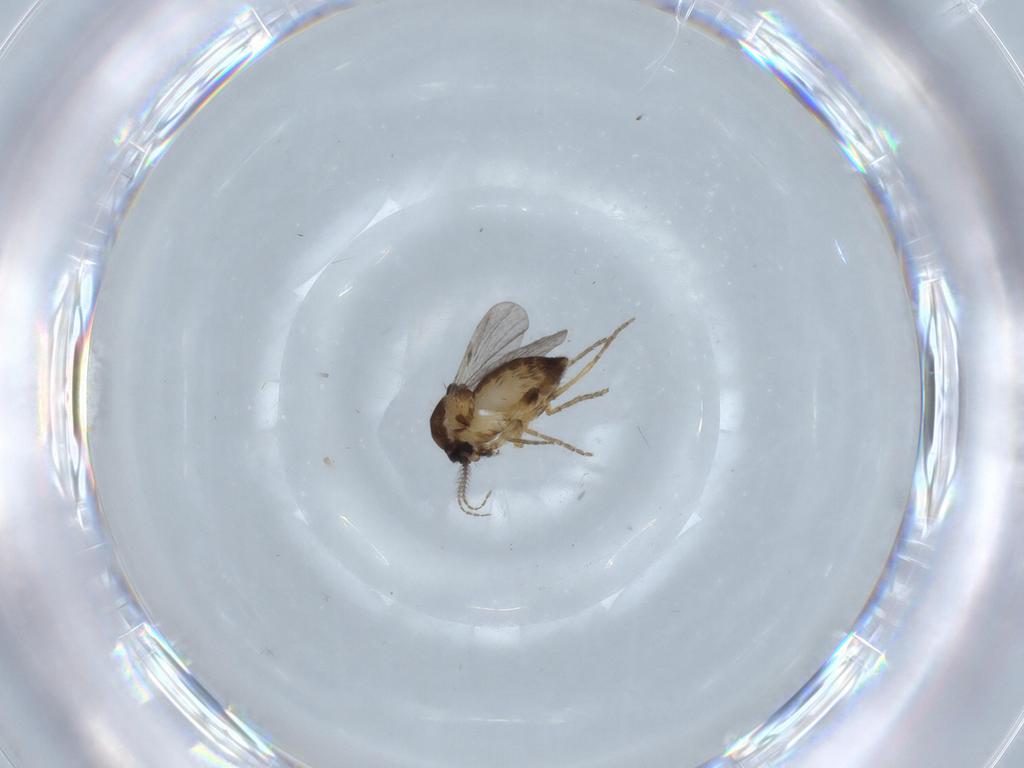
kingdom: Animalia
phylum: Arthropoda
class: Insecta
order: Diptera
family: Ceratopogonidae
